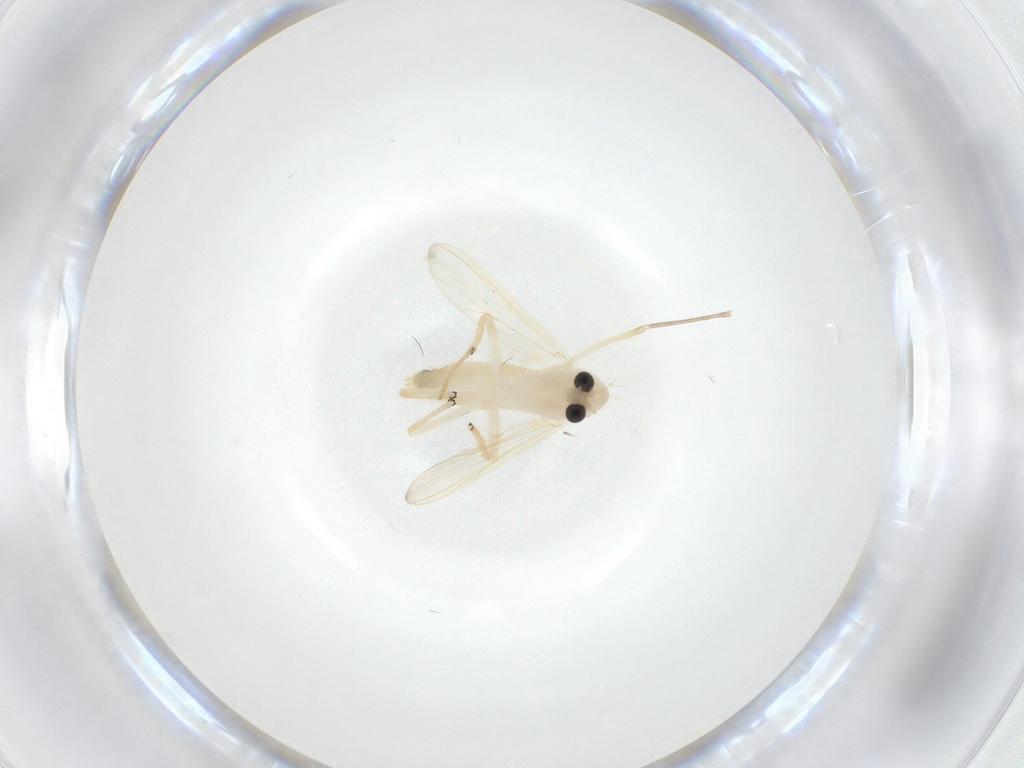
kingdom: Animalia
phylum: Arthropoda
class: Insecta
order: Diptera
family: Chironomidae
